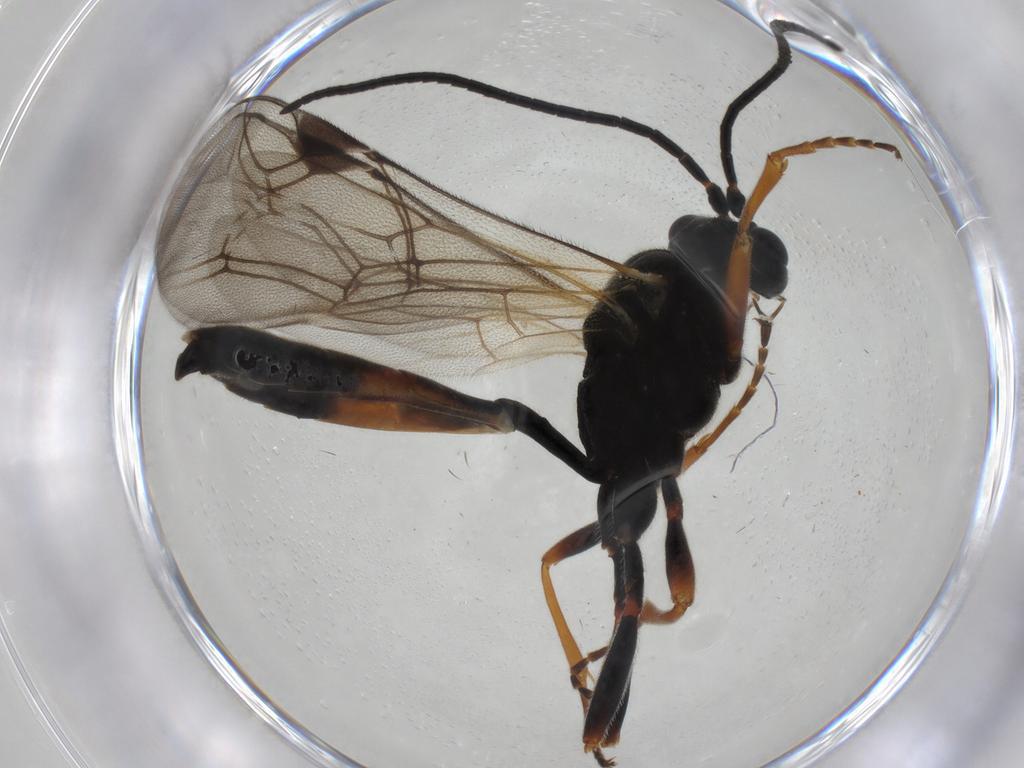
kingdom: Animalia
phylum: Arthropoda
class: Insecta
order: Hymenoptera
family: Ichneumonidae
